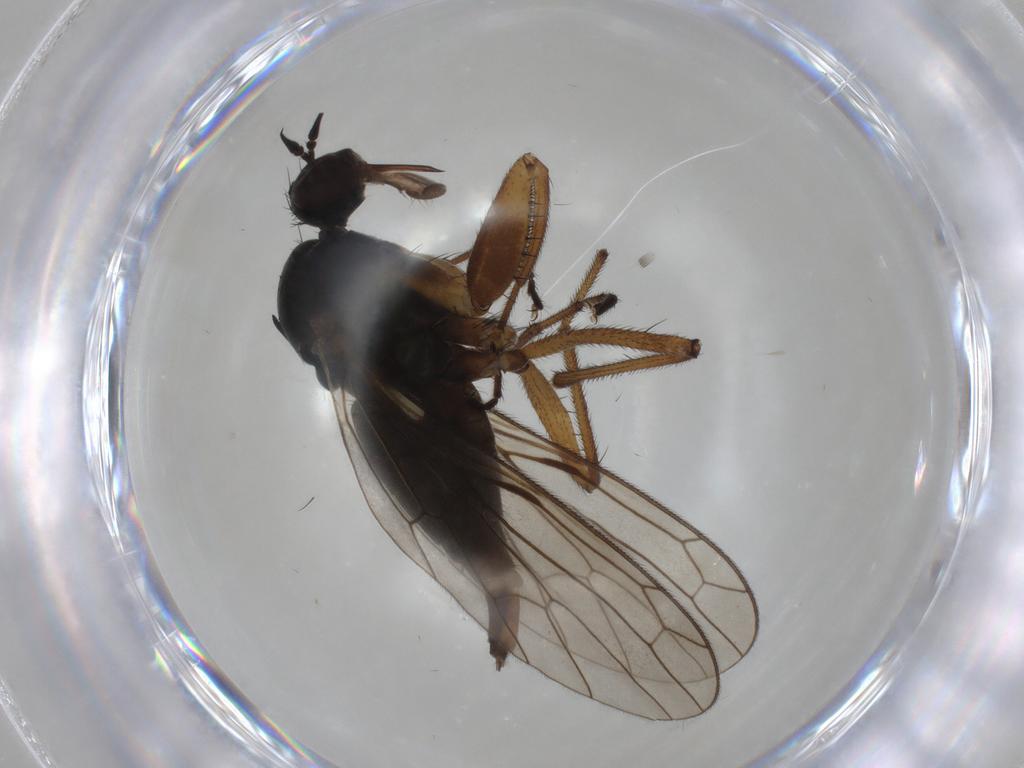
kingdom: Animalia
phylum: Arthropoda
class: Insecta
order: Diptera
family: Empididae
